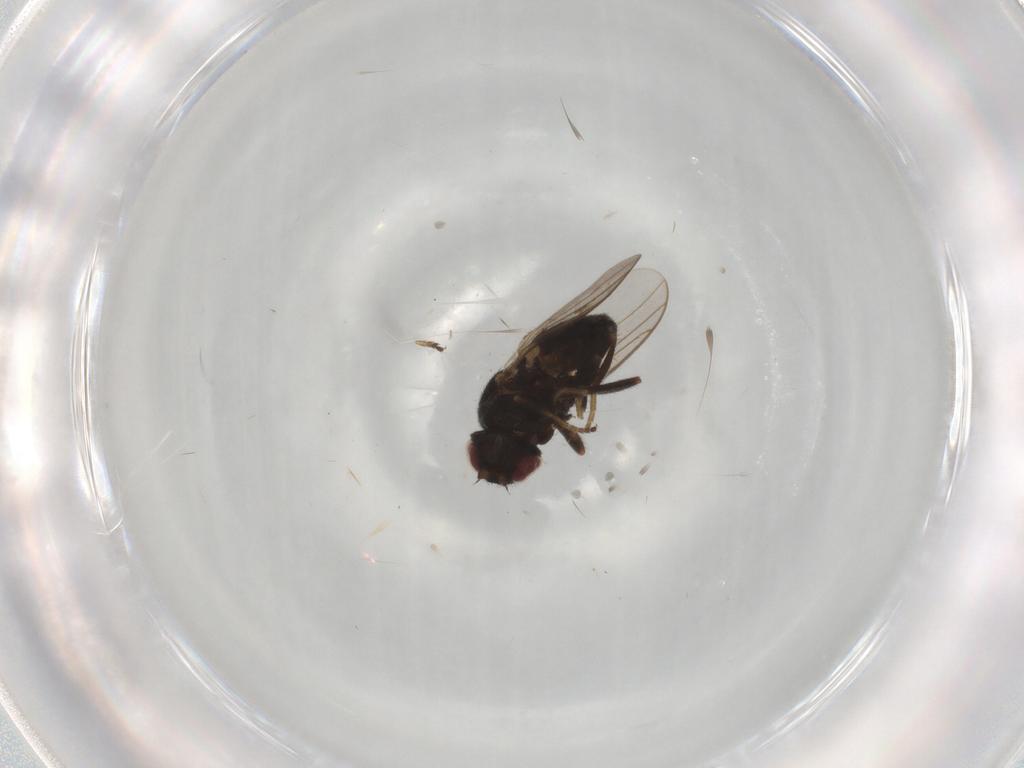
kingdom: Animalia
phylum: Arthropoda
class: Insecta
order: Diptera
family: Chloropidae
